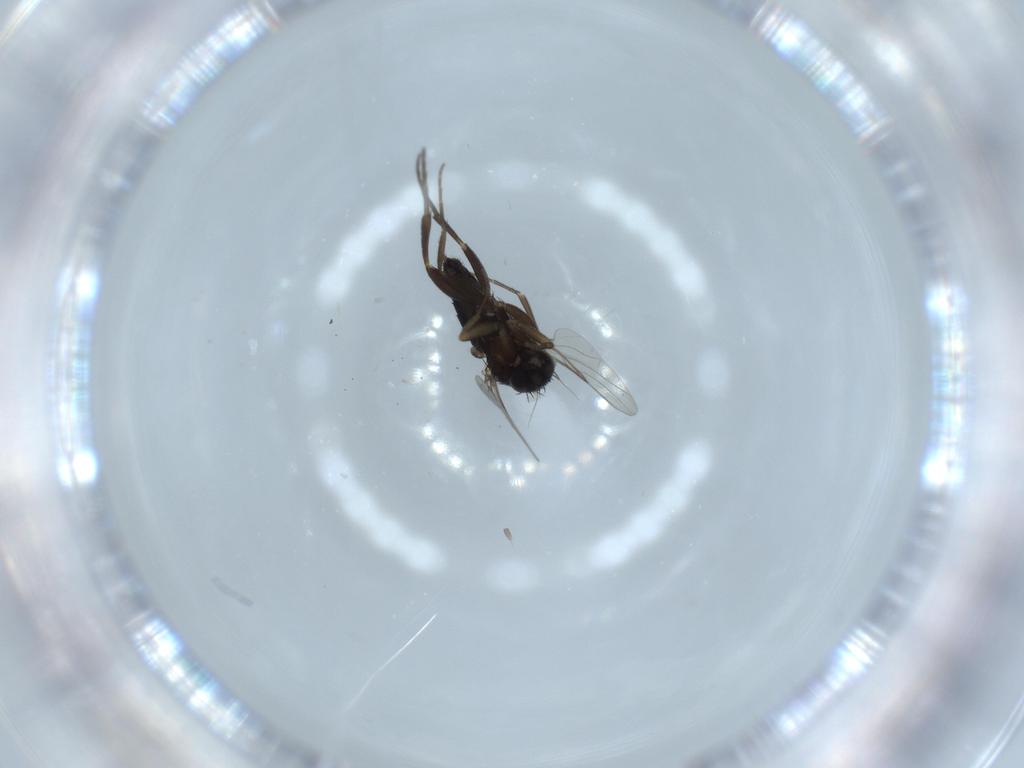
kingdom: Animalia
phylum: Arthropoda
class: Insecta
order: Diptera
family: Phoridae
